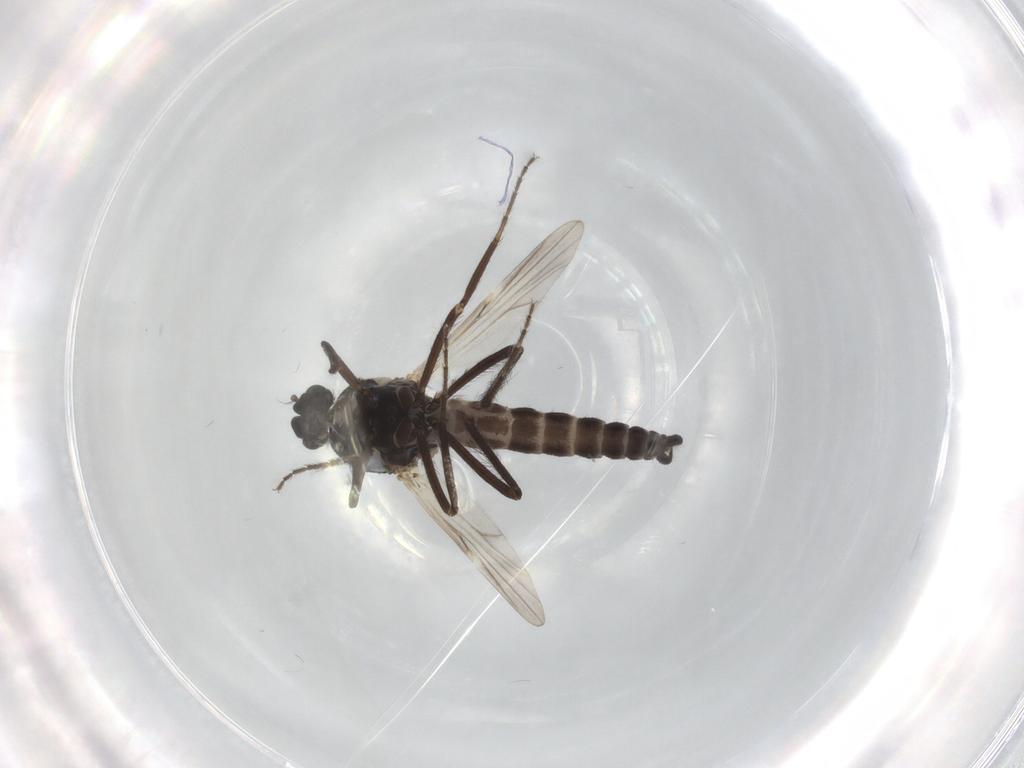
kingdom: Animalia
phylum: Arthropoda
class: Insecta
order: Diptera
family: Ceratopogonidae
